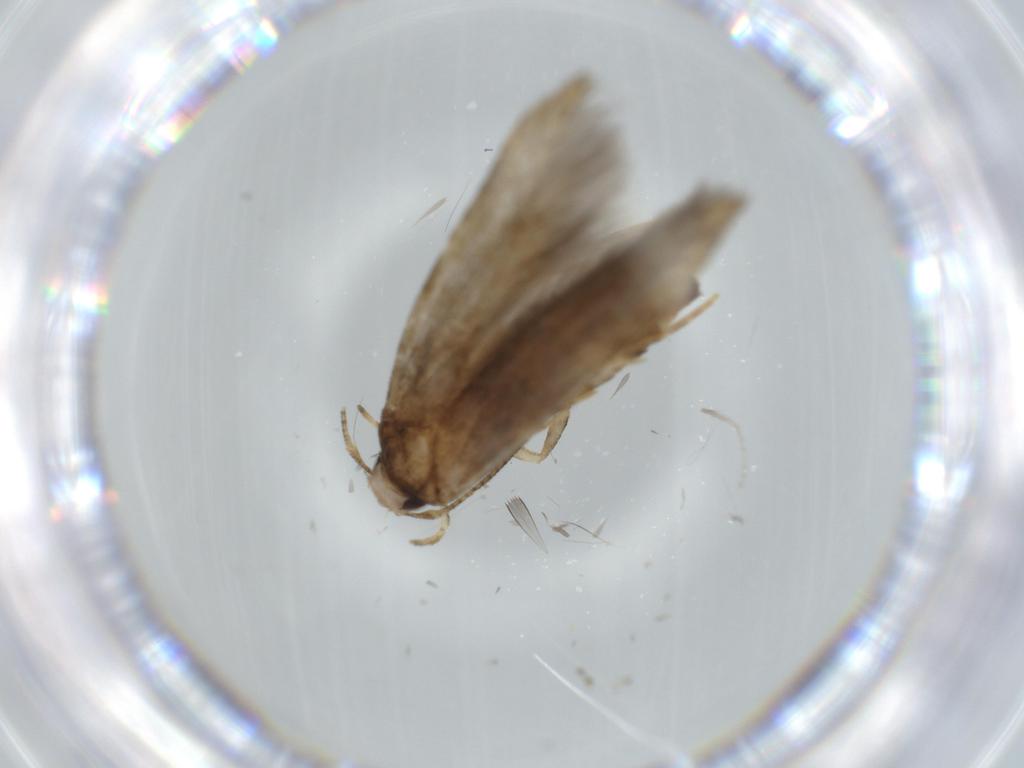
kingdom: Animalia
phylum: Arthropoda
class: Insecta
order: Lepidoptera
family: Cosmopterigidae
